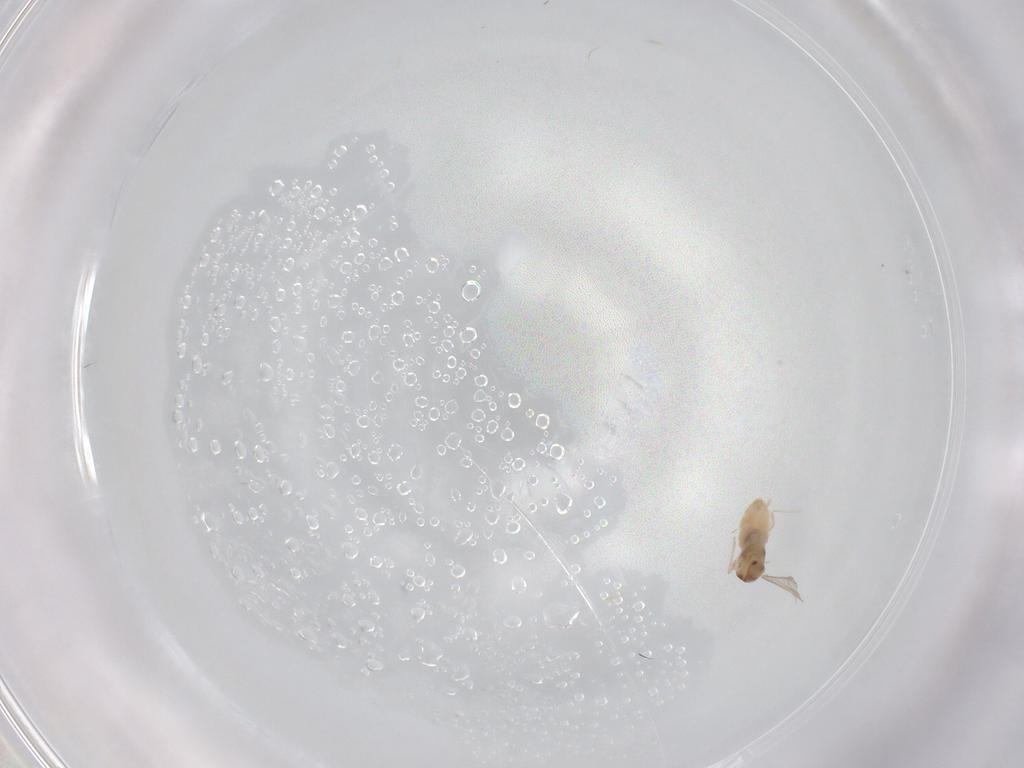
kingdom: Animalia
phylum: Arthropoda
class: Insecta
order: Diptera
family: Cecidomyiidae
